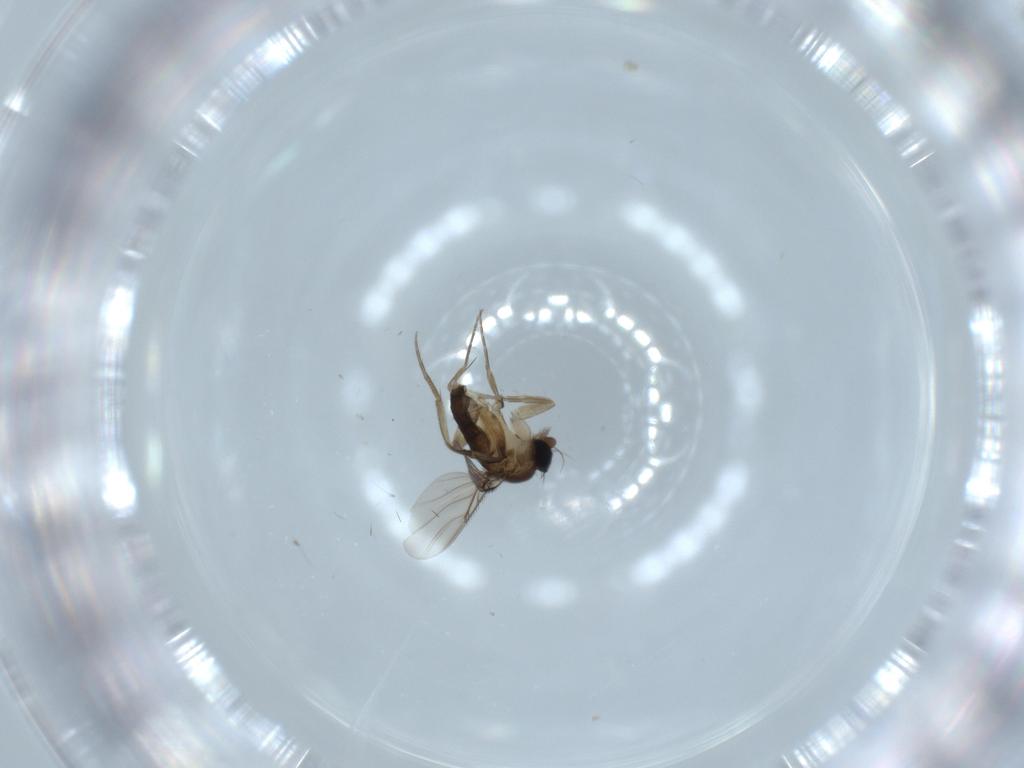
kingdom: Animalia
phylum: Arthropoda
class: Insecta
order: Diptera
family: Phoridae
